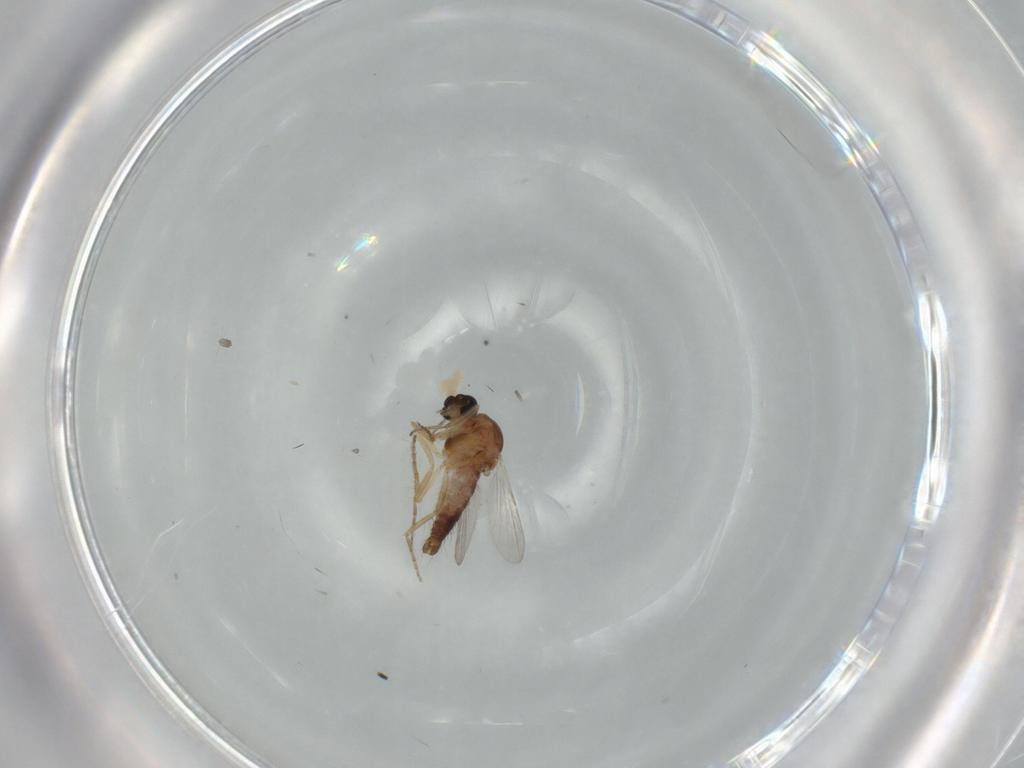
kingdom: Animalia
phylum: Arthropoda
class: Insecta
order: Diptera
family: Ceratopogonidae
